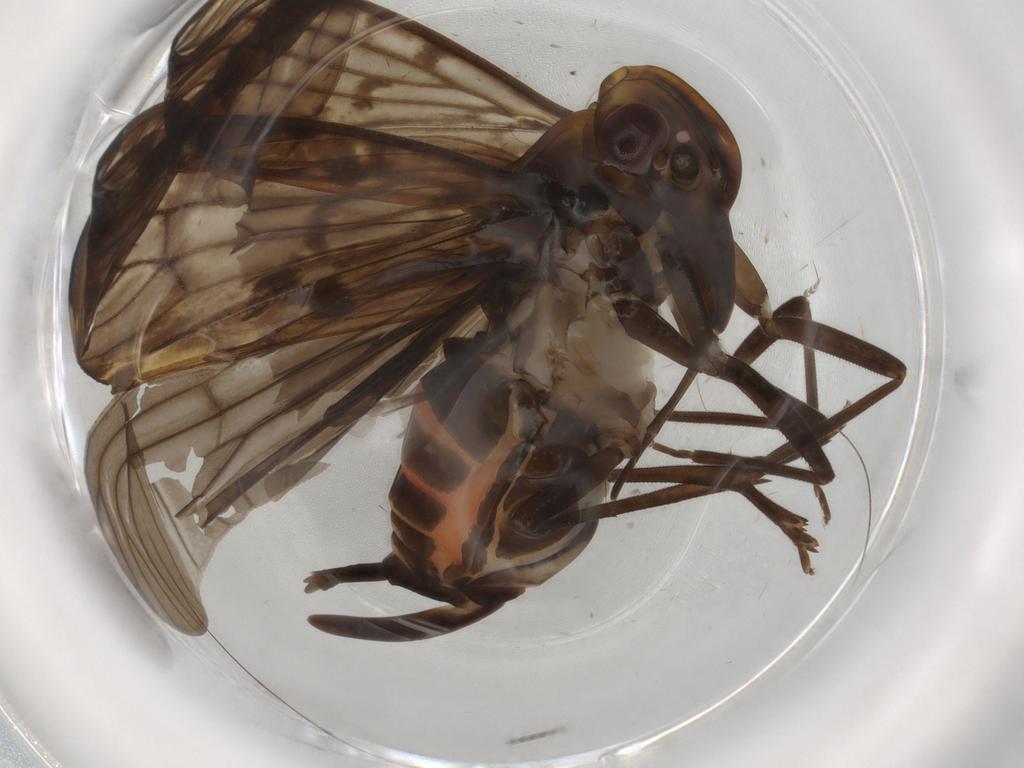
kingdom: Animalia
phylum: Arthropoda
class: Insecta
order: Hemiptera
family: Cixiidae
